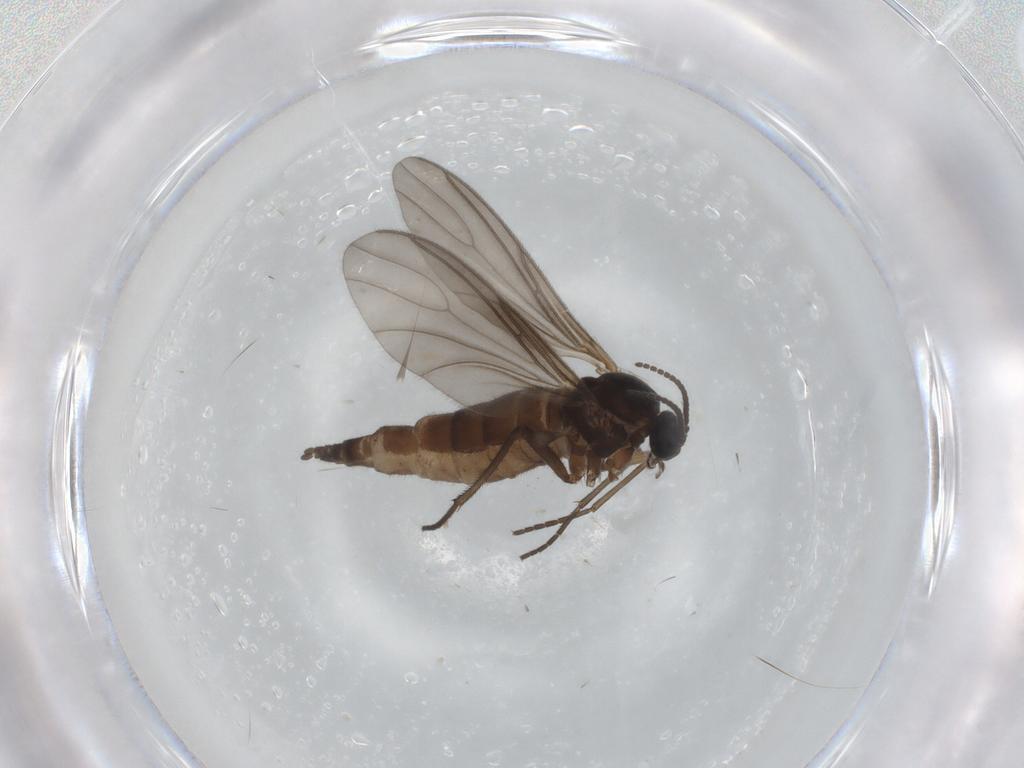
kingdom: Animalia
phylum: Arthropoda
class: Insecta
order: Diptera
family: Sciaridae
